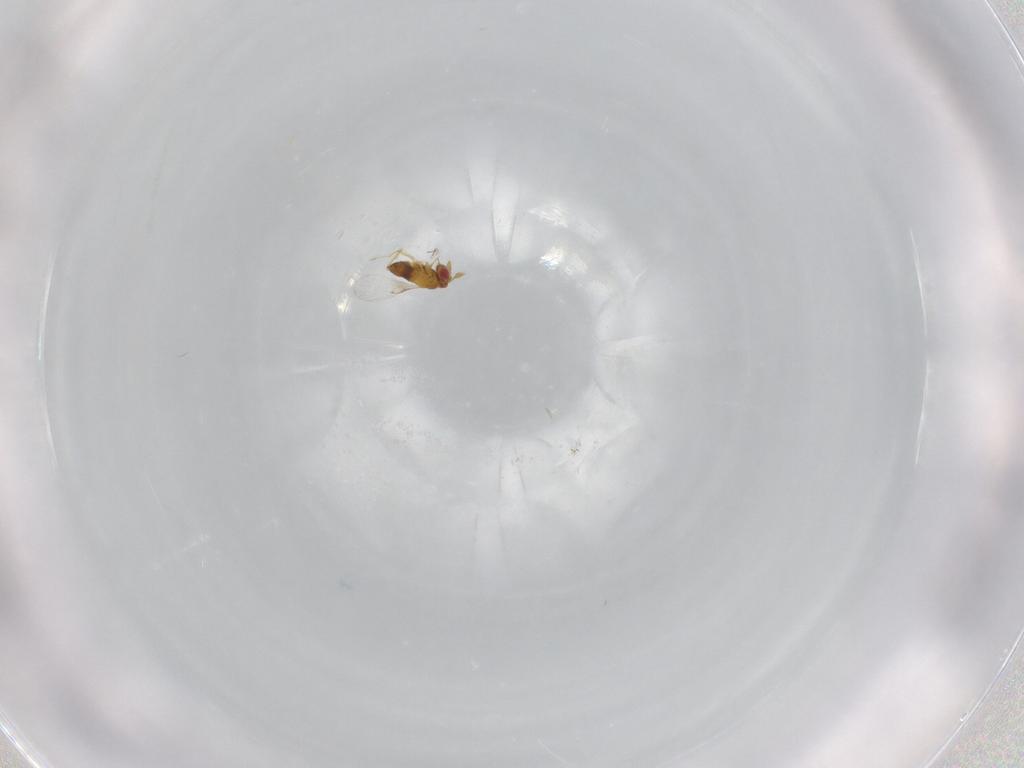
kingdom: Animalia
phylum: Arthropoda
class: Insecta
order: Hymenoptera
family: Trichogrammatidae
